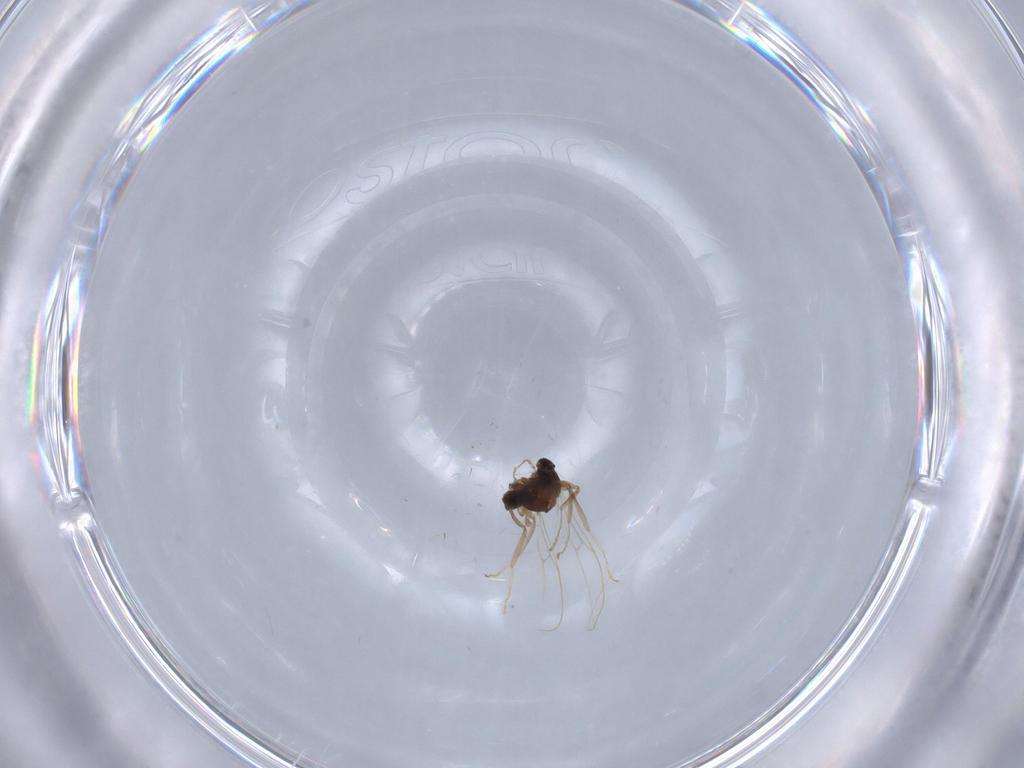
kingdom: Animalia
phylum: Arthropoda
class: Insecta
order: Diptera
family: Cecidomyiidae
